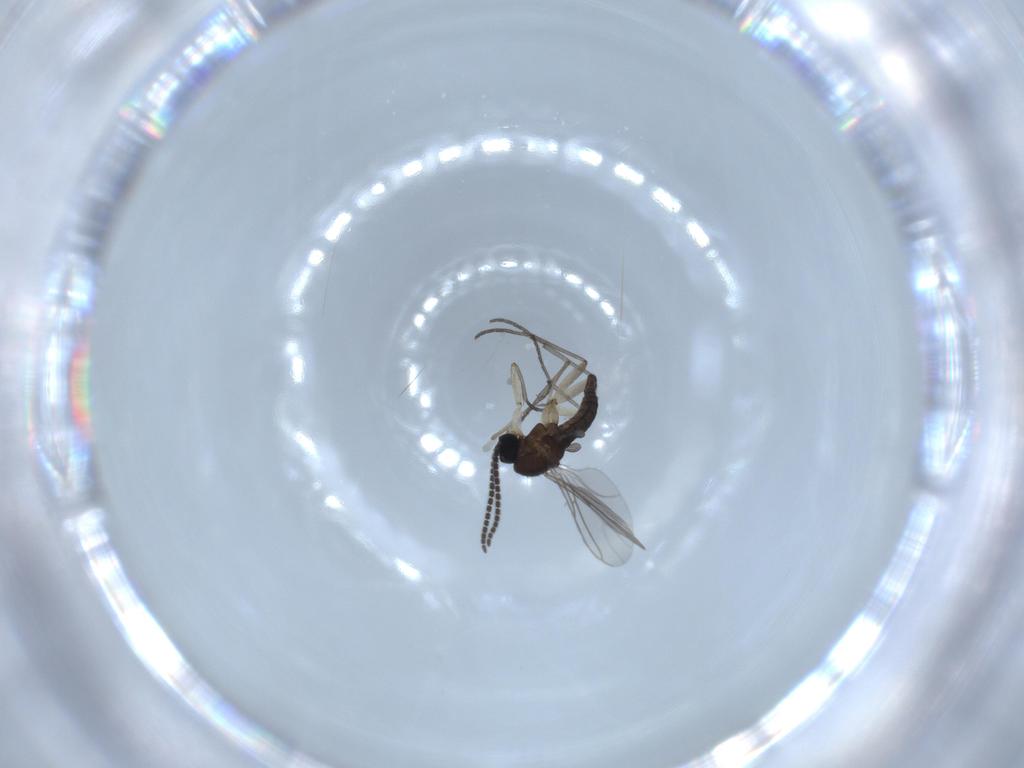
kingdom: Animalia
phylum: Arthropoda
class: Insecta
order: Diptera
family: Sciaridae
